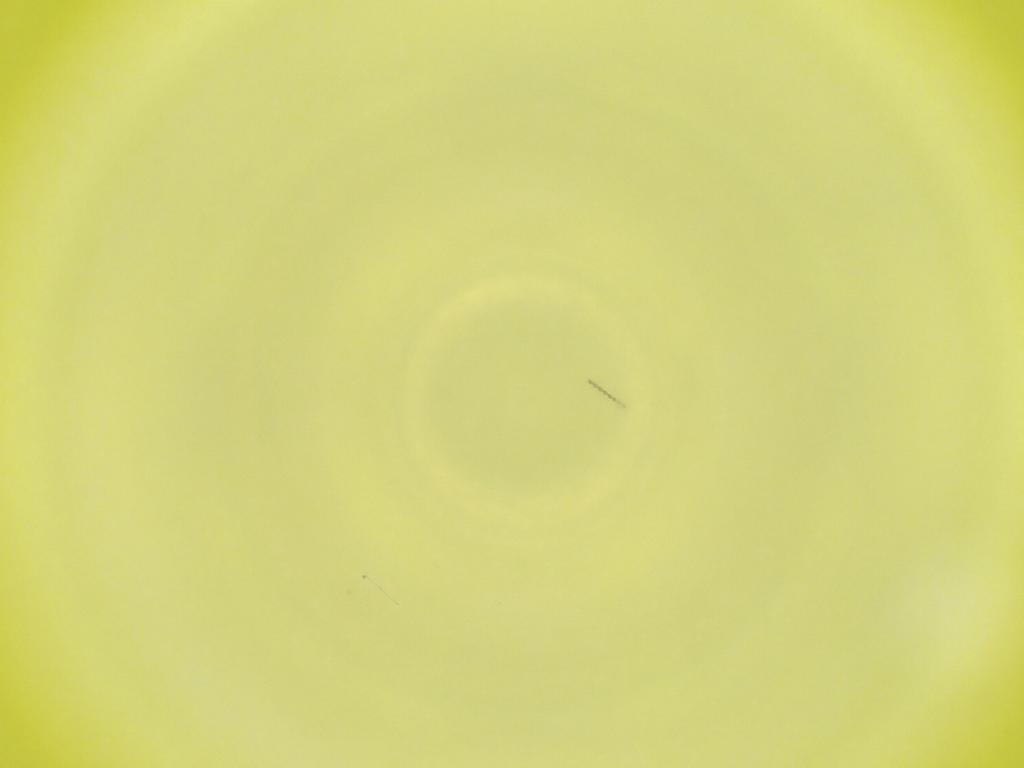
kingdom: Animalia
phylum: Arthropoda
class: Insecta
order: Diptera
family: Cecidomyiidae
